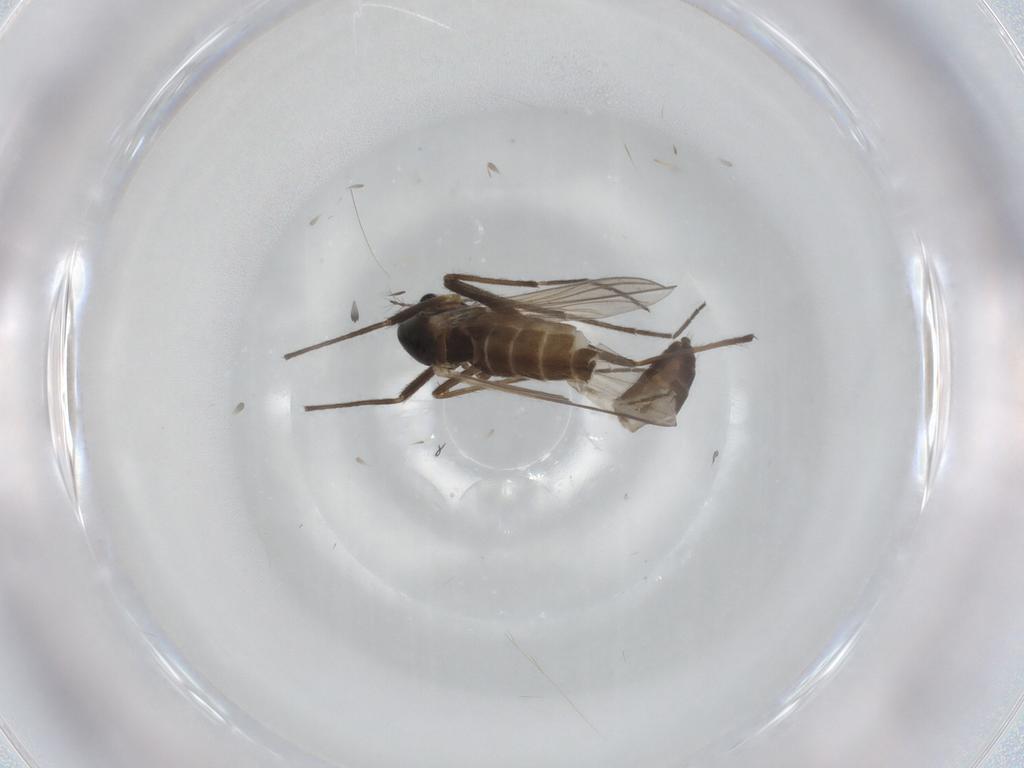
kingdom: Animalia
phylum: Arthropoda
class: Insecta
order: Diptera
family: Chironomidae
